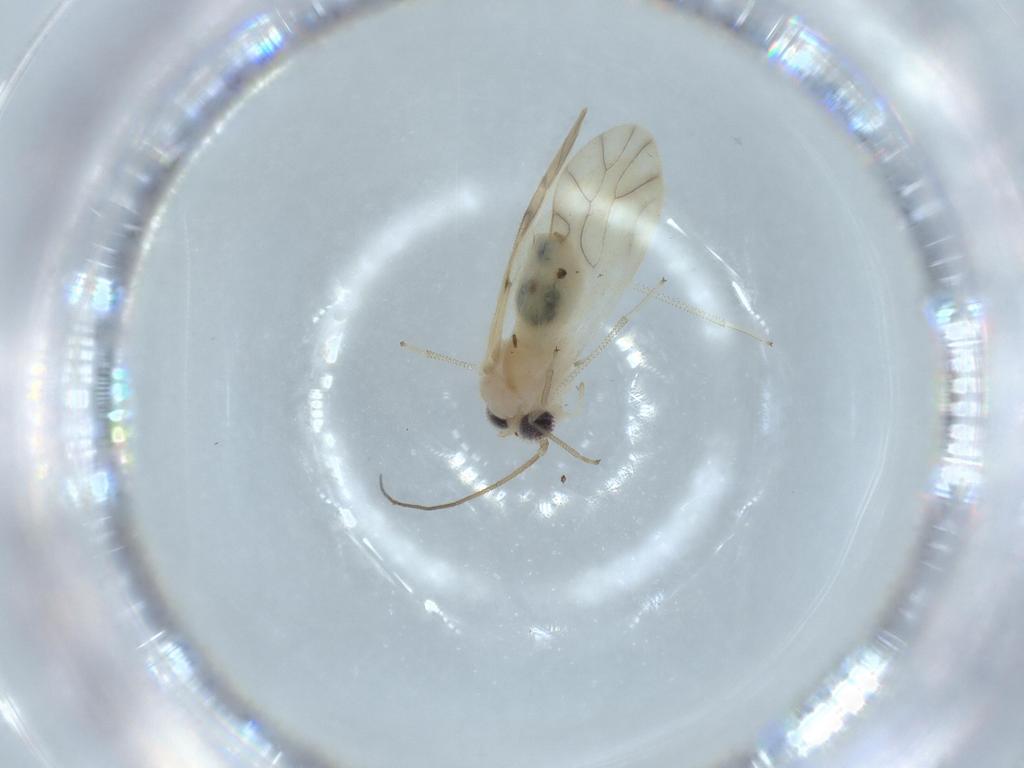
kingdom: Animalia
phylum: Arthropoda
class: Insecta
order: Psocodea
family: Caeciliusidae
